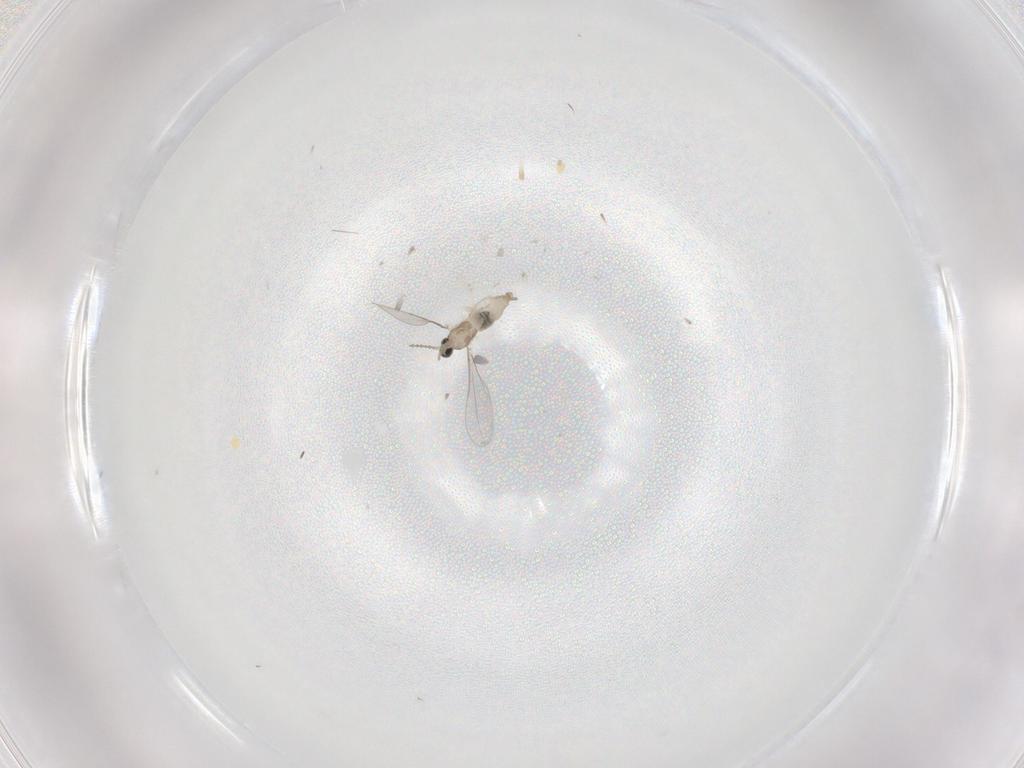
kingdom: Animalia
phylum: Arthropoda
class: Insecta
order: Diptera
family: Cecidomyiidae
